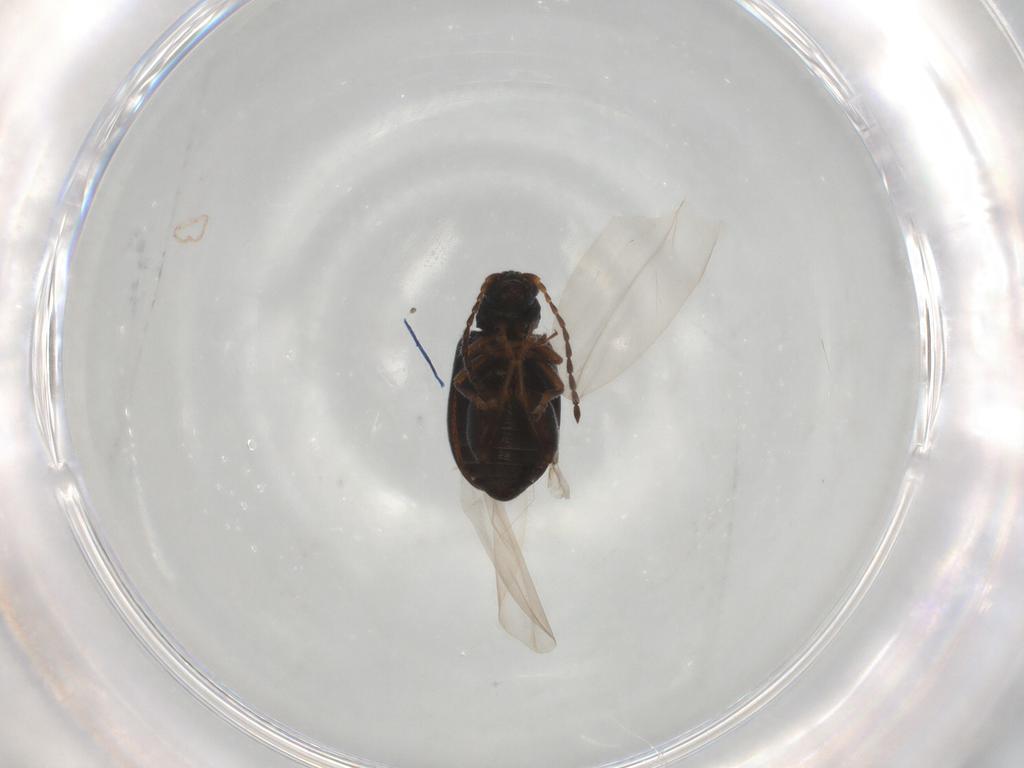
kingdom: Animalia
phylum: Arthropoda
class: Insecta
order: Coleoptera
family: Chrysomelidae
